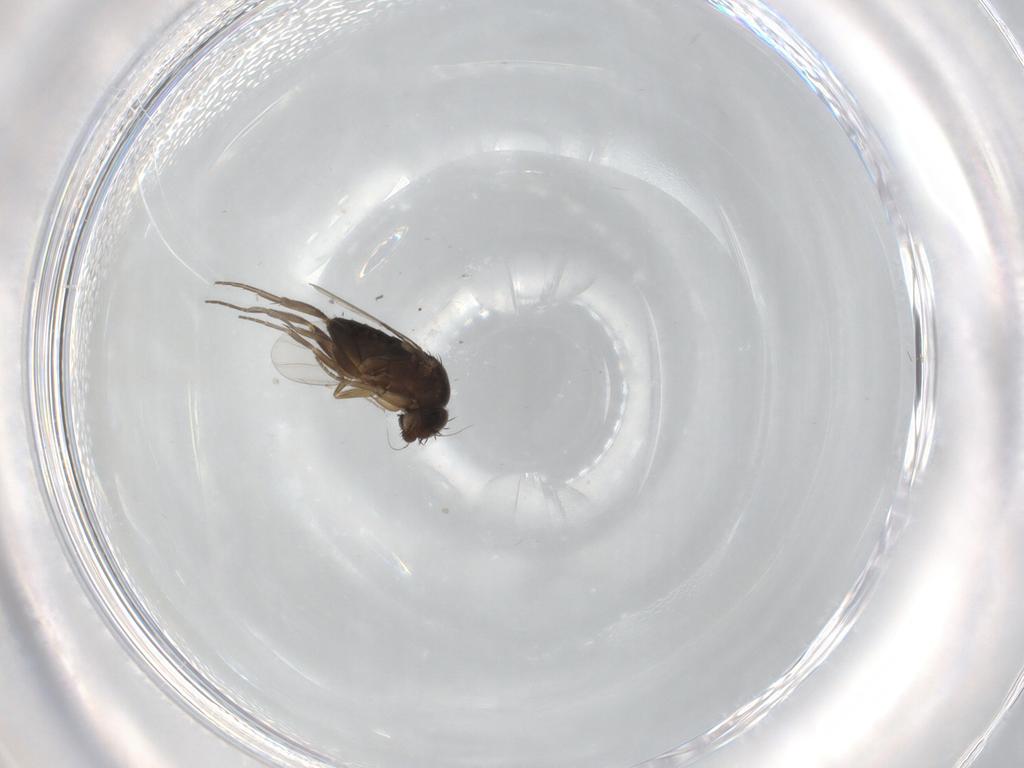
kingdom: Animalia
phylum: Arthropoda
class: Insecta
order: Diptera
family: Phoridae
